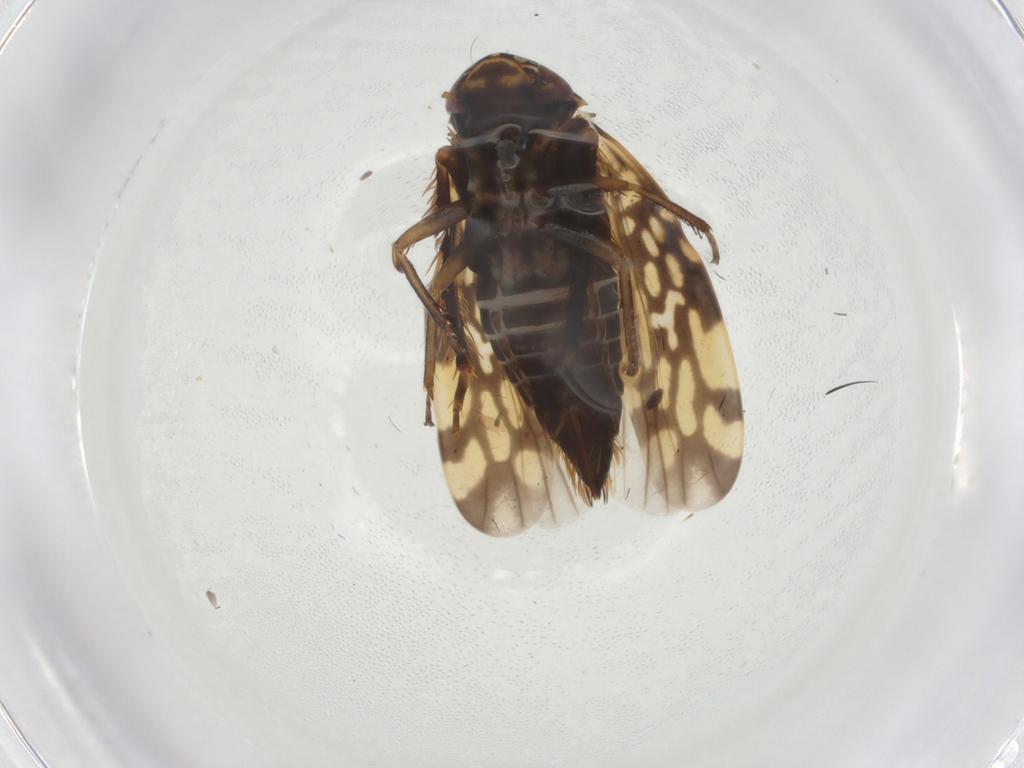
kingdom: Animalia
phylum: Arthropoda
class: Insecta
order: Hemiptera
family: Cicadellidae
